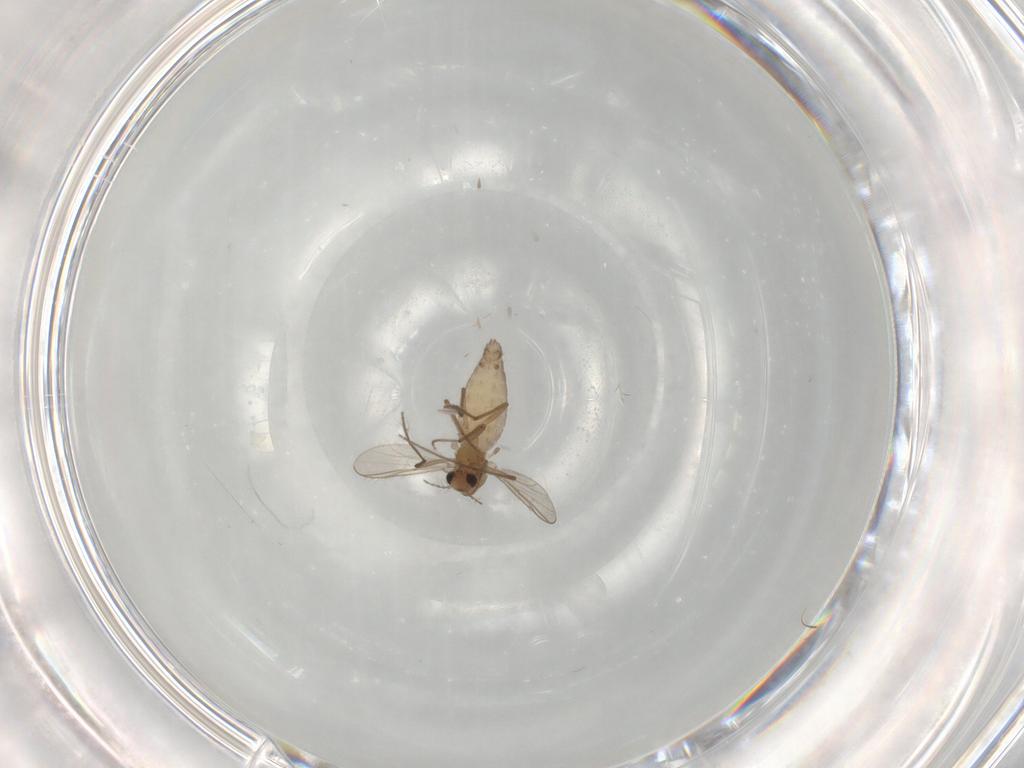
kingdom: Animalia
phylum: Arthropoda
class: Insecta
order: Diptera
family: Chironomidae
